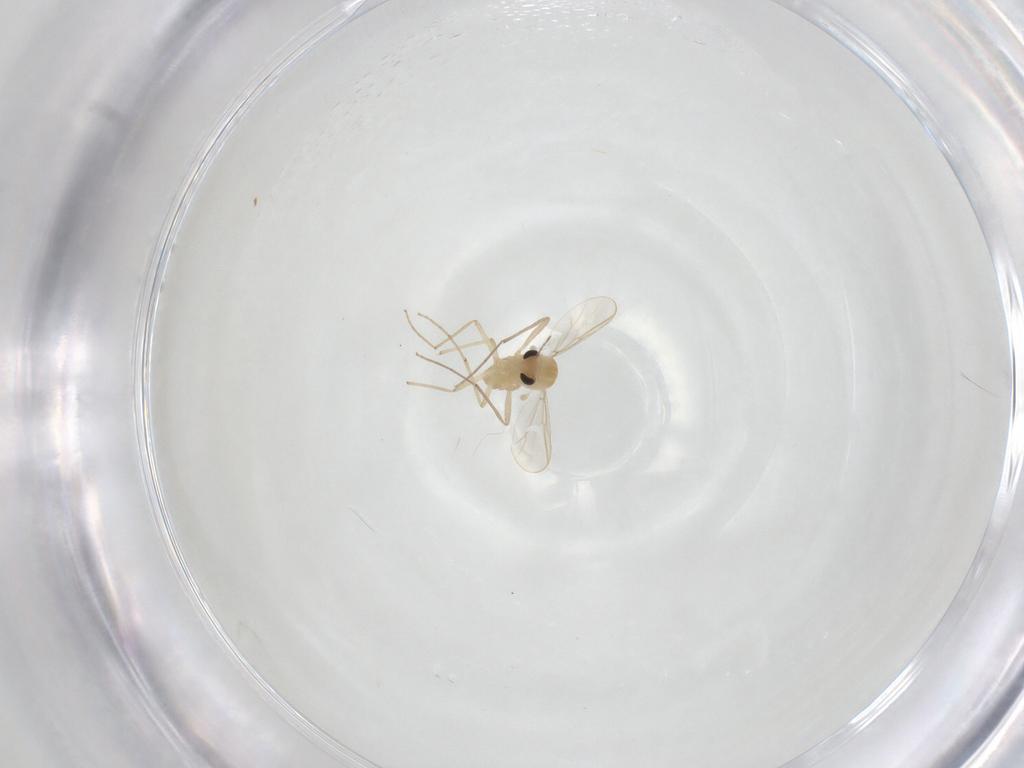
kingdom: Animalia
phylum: Arthropoda
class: Insecta
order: Diptera
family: Chironomidae
